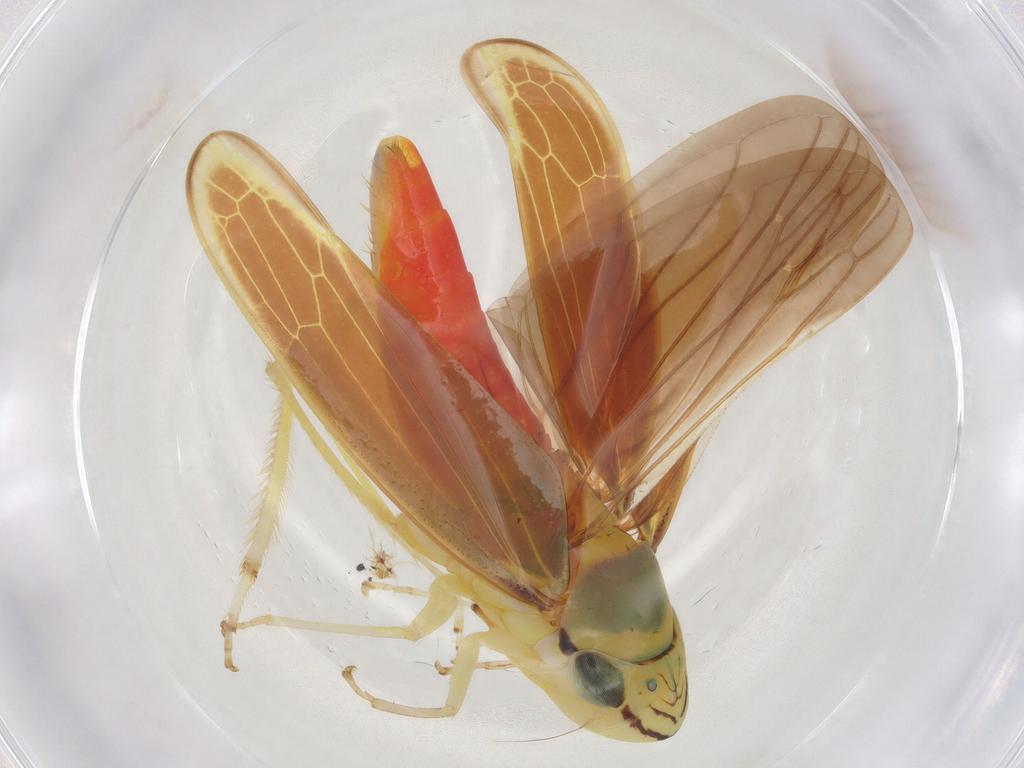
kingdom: Animalia
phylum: Arthropoda
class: Insecta
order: Hemiptera
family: Cicadellidae
